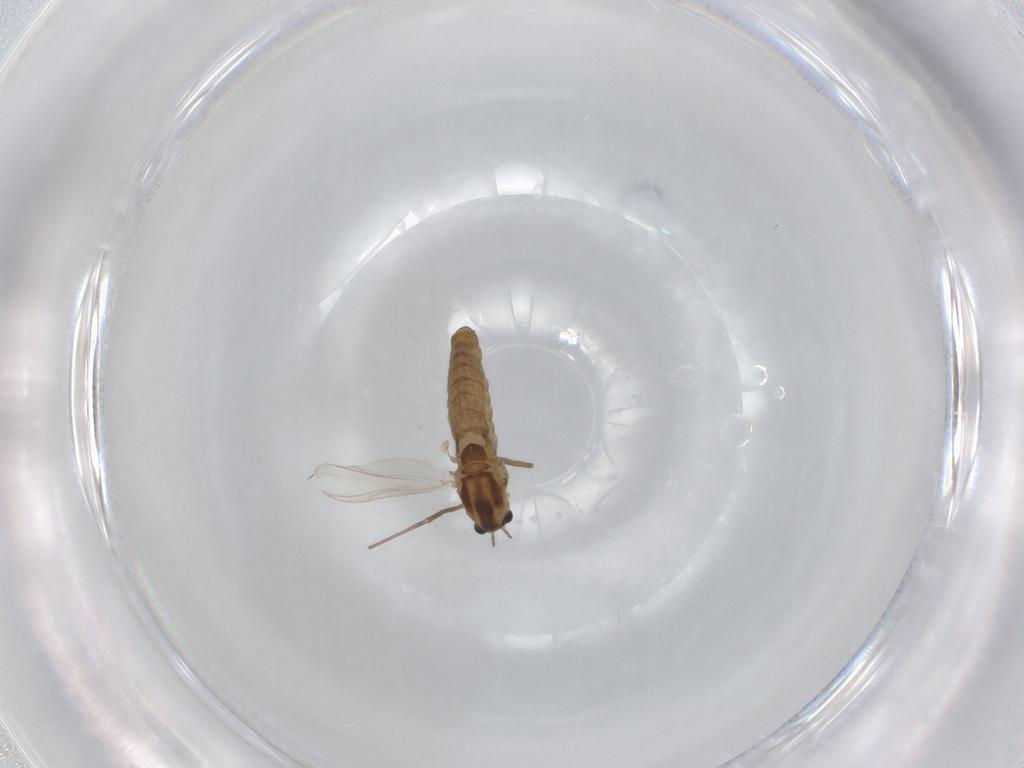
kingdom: Animalia
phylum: Arthropoda
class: Insecta
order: Diptera
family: Chironomidae
